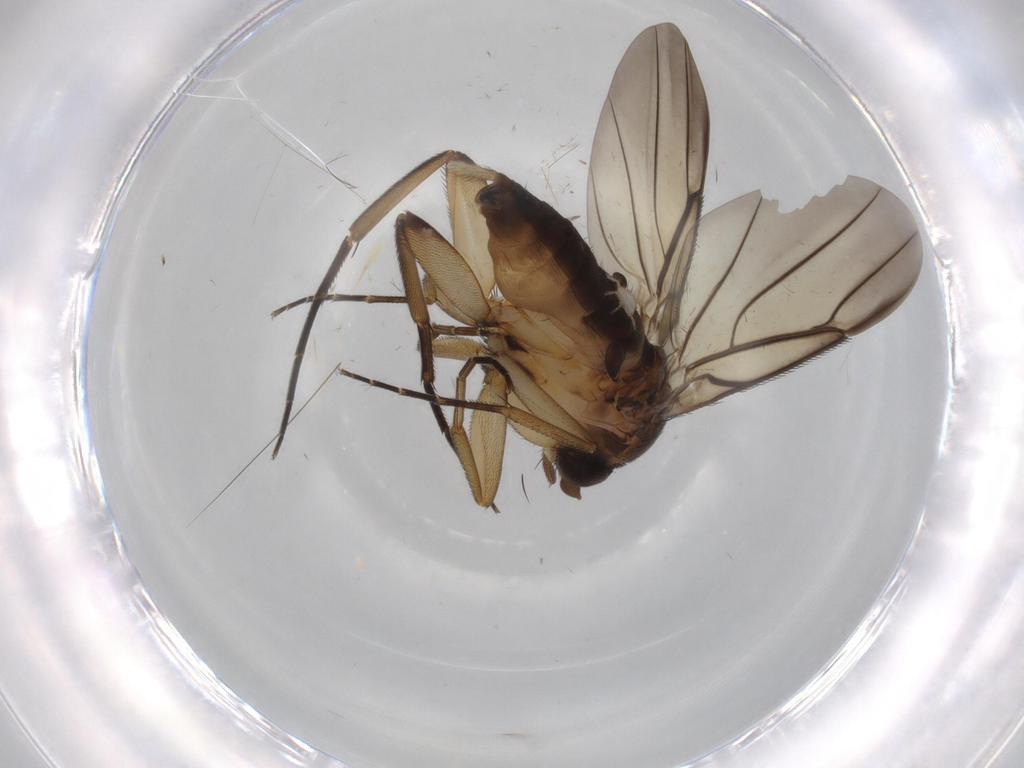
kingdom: Animalia
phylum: Arthropoda
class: Insecta
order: Diptera
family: Phoridae
